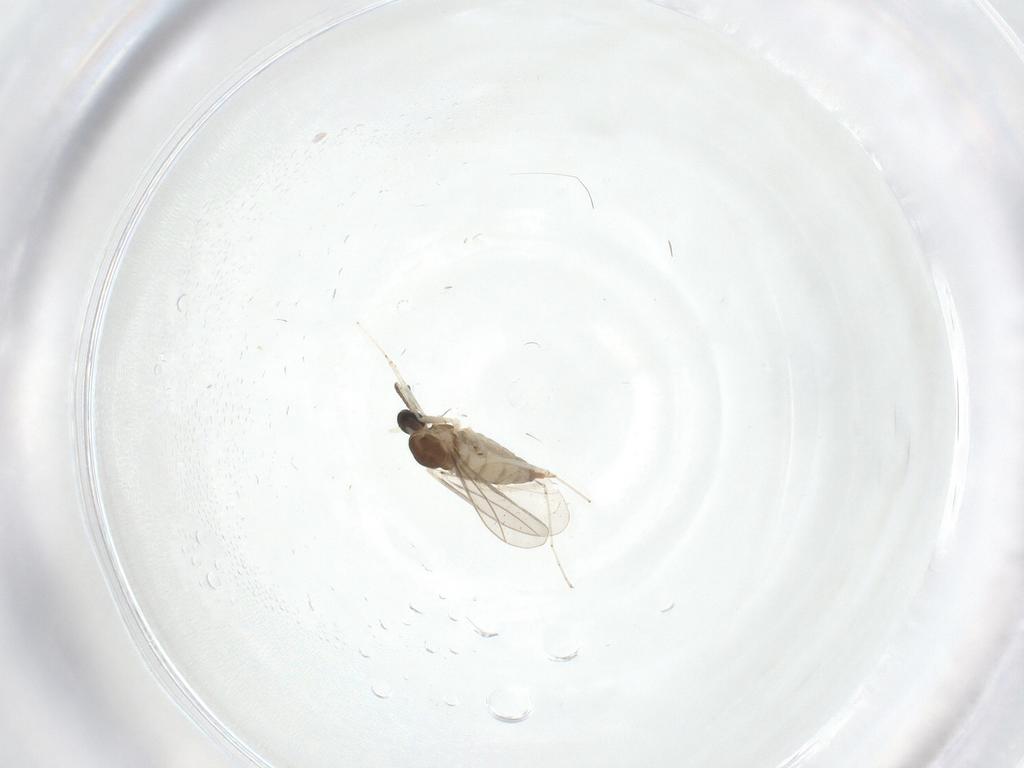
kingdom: Animalia
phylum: Arthropoda
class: Insecta
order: Diptera
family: Cecidomyiidae
